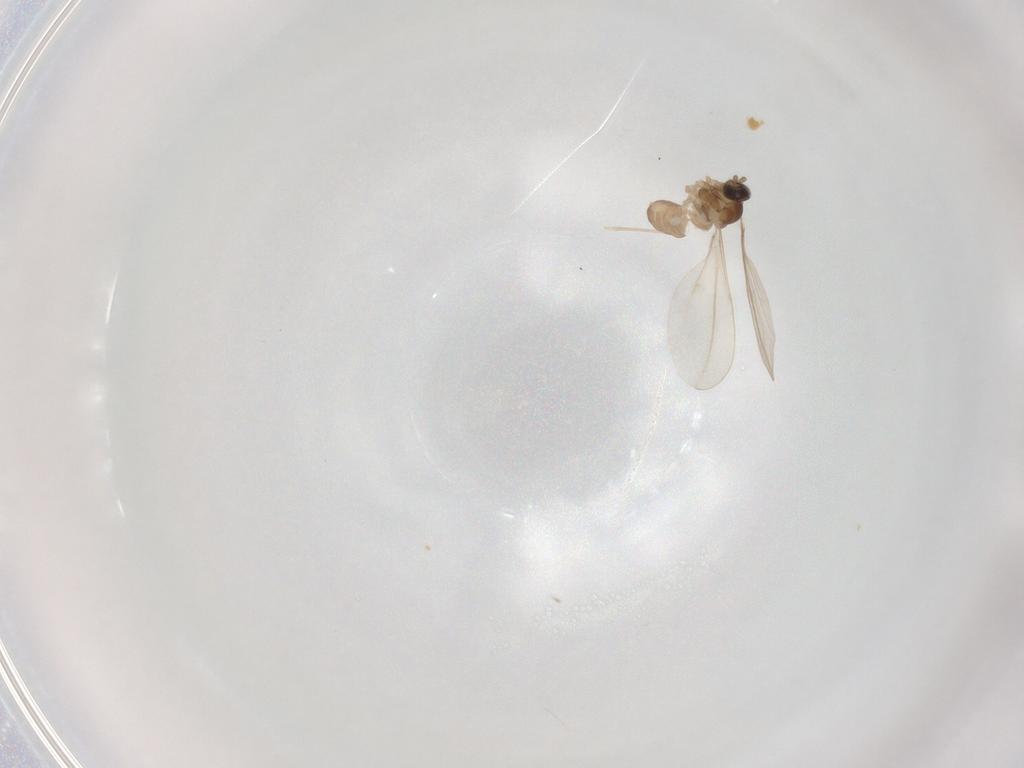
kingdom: Animalia
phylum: Arthropoda
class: Insecta
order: Diptera
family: Cecidomyiidae
